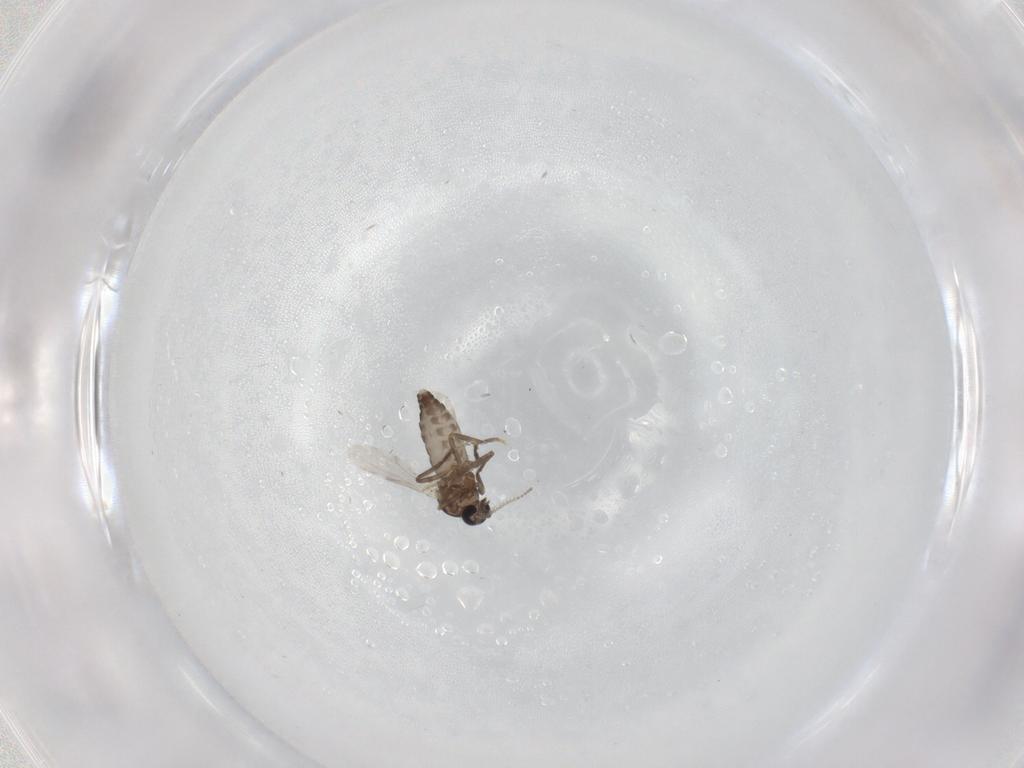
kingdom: Animalia
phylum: Arthropoda
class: Insecta
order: Diptera
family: Ceratopogonidae
